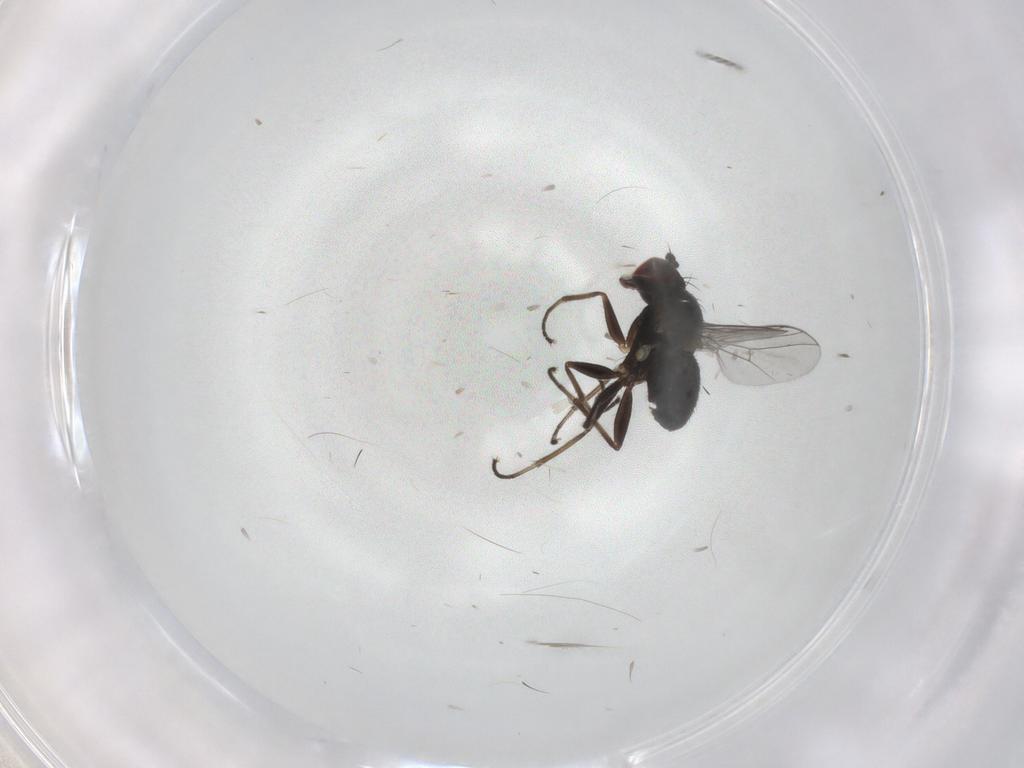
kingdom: Animalia
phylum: Arthropoda
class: Insecta
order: Diptera
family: Dolichopodidae
